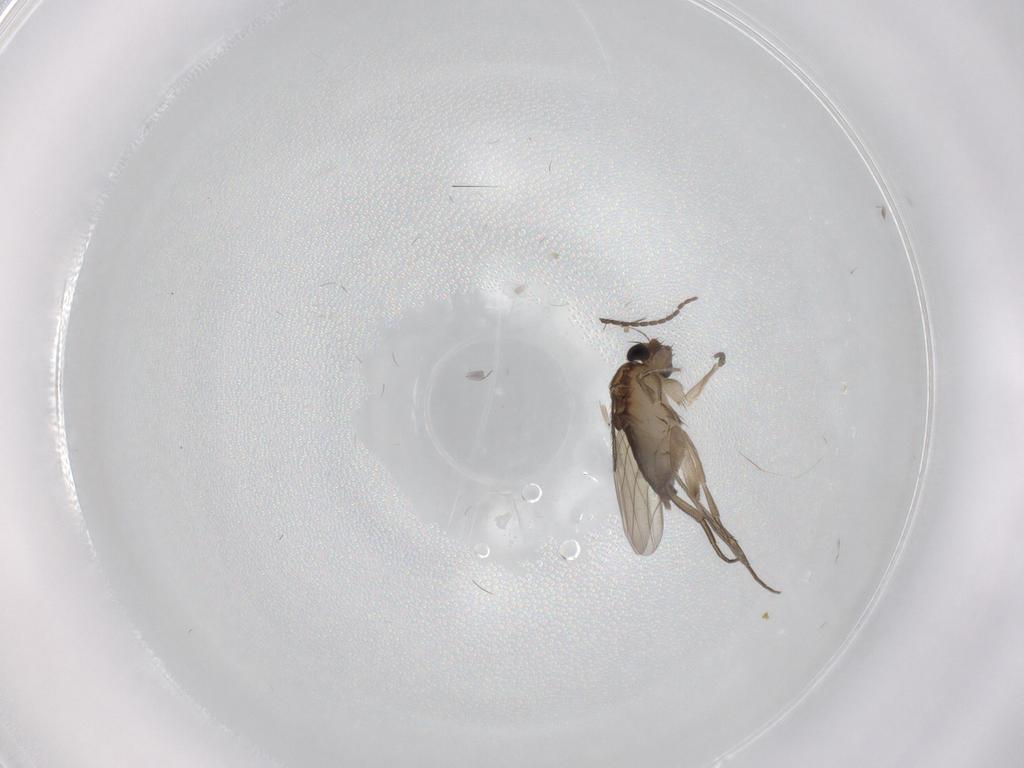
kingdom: Animalia
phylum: Arthropoda
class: Insecta
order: Diptera
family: Phoridae
